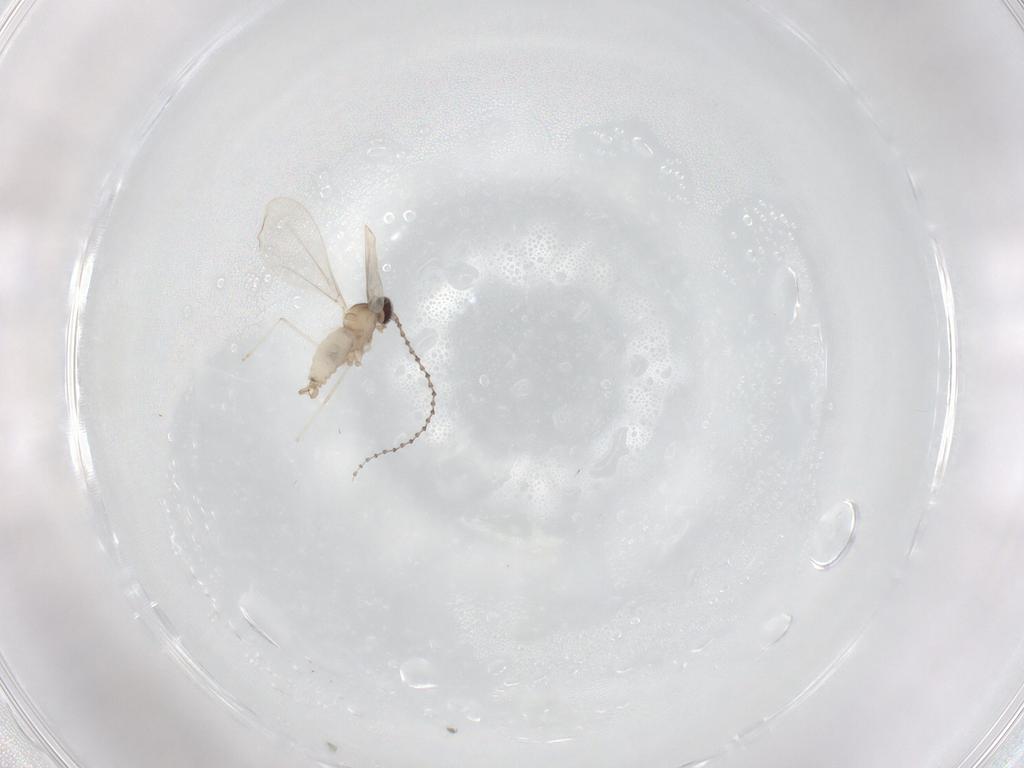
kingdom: Animalia
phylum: Arthropoda
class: Insecta
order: Diptera
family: Cecidomyiidae
